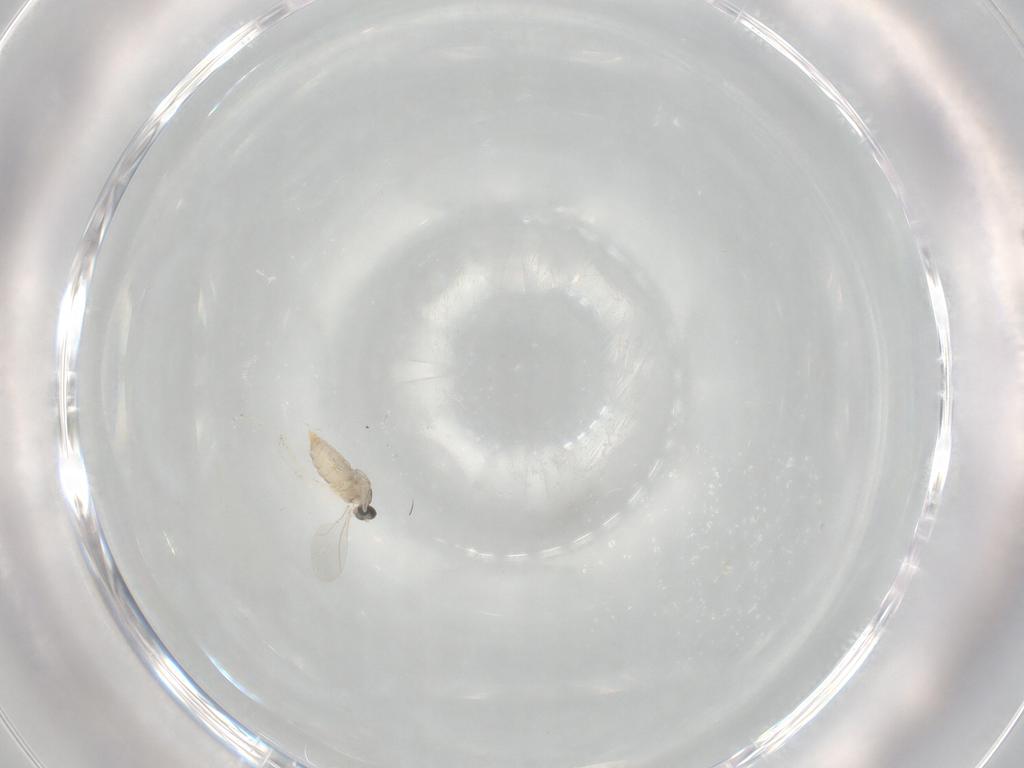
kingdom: Animalia
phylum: Arthropoda
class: Insecta
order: Diptera
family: Cecidomyiidae
